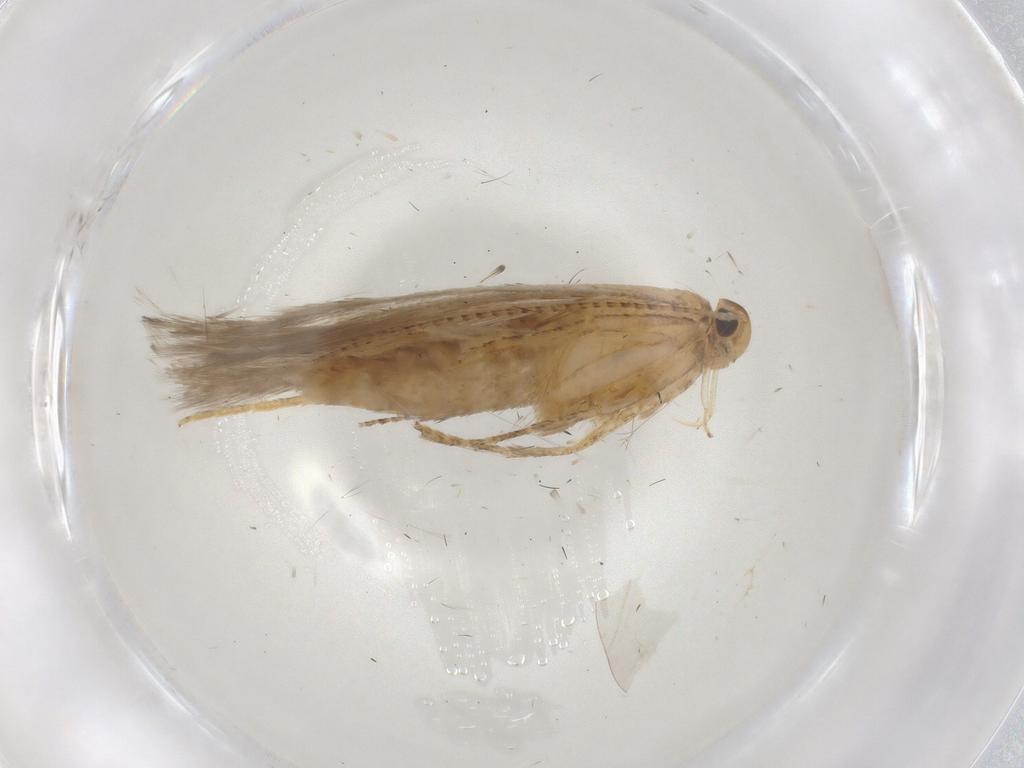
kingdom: Animalia
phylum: Arthropoda
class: Insecta
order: Lepidoptera
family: Gelechiidae
